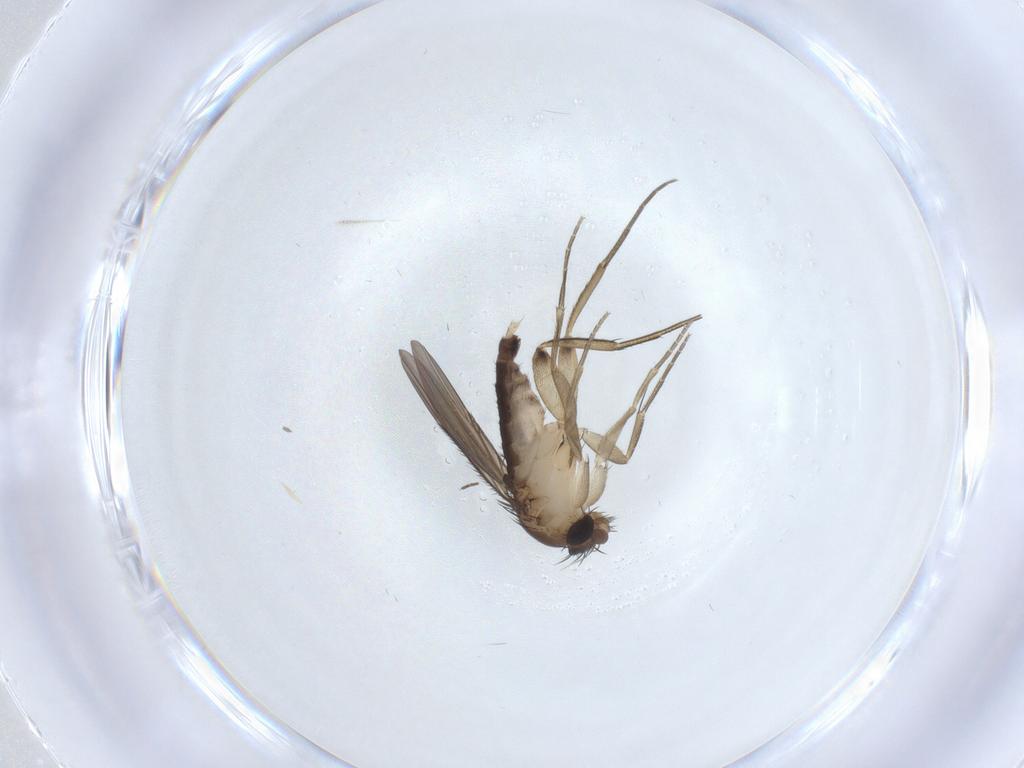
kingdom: Animalia
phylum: Arthropoda
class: Insecta
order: Diptera
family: Phoridae
